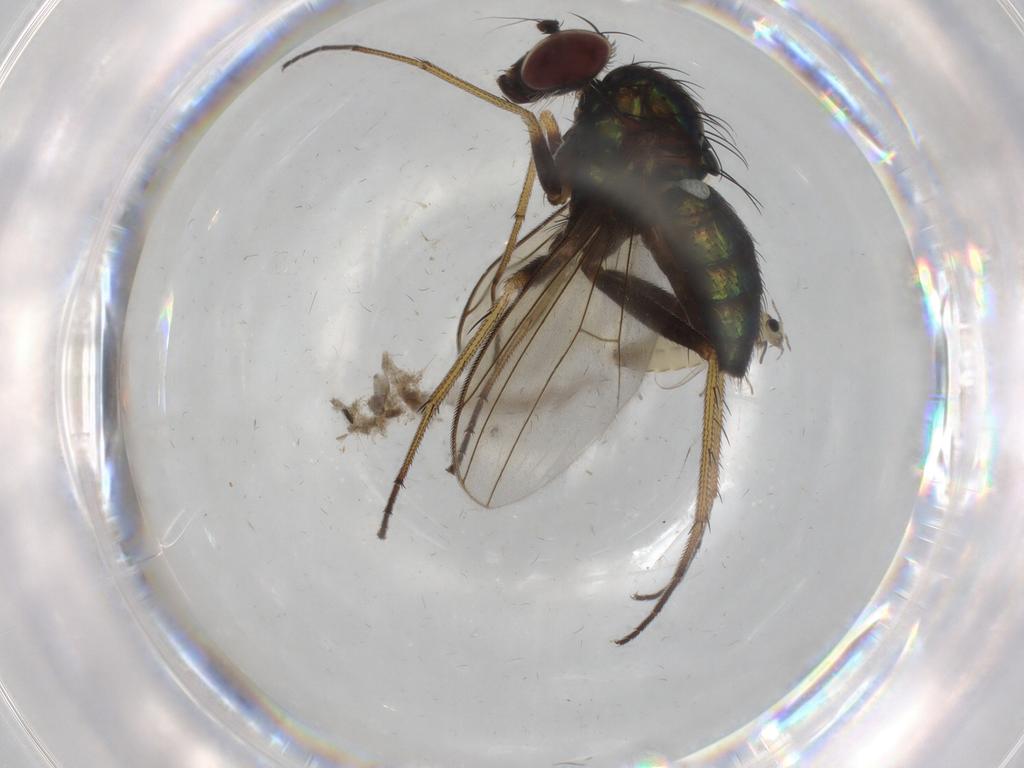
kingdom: Animalia
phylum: Arthropoda
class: Insecta
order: Diptera
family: Dolichopodidae
